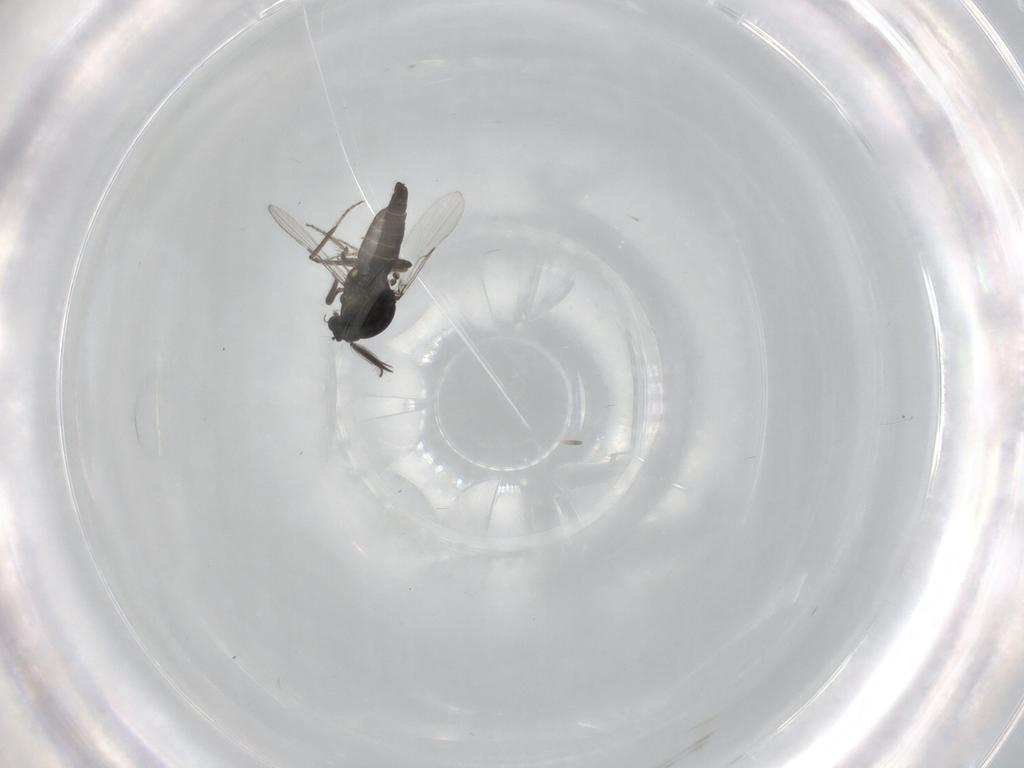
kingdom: Animalia
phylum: Arthropoda
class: Insecta
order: Diptera
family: Ceratopogonidae
